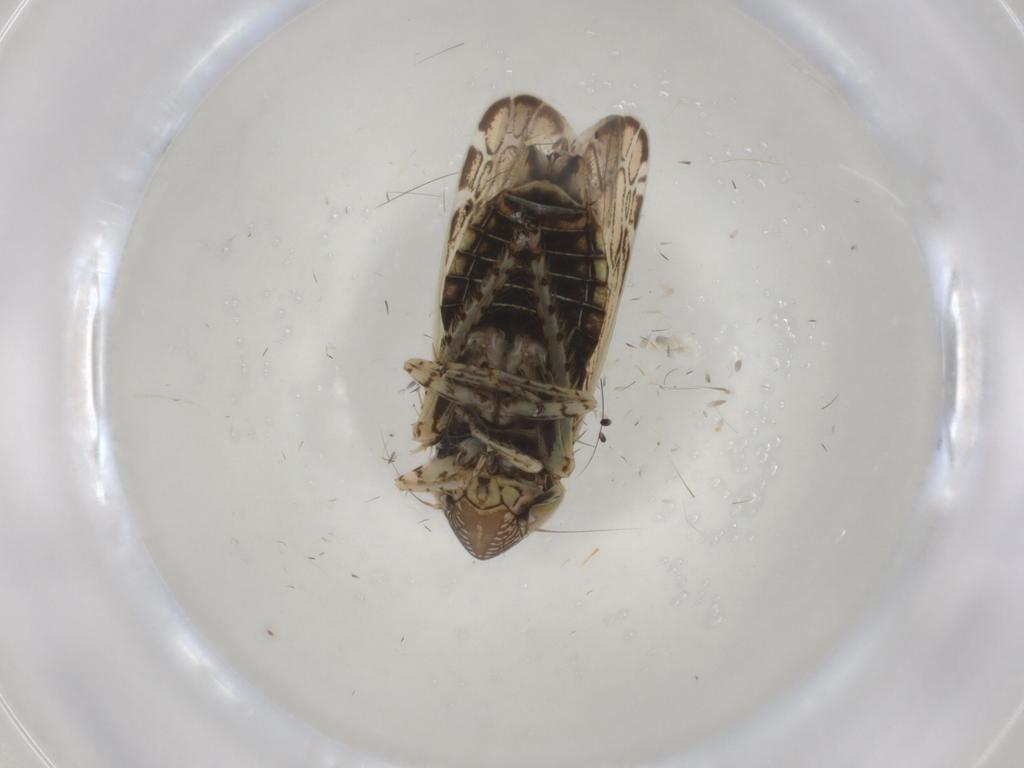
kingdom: Animalia
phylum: Arthropoda
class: Insecta
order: Hemiptera
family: Cicadellidae
